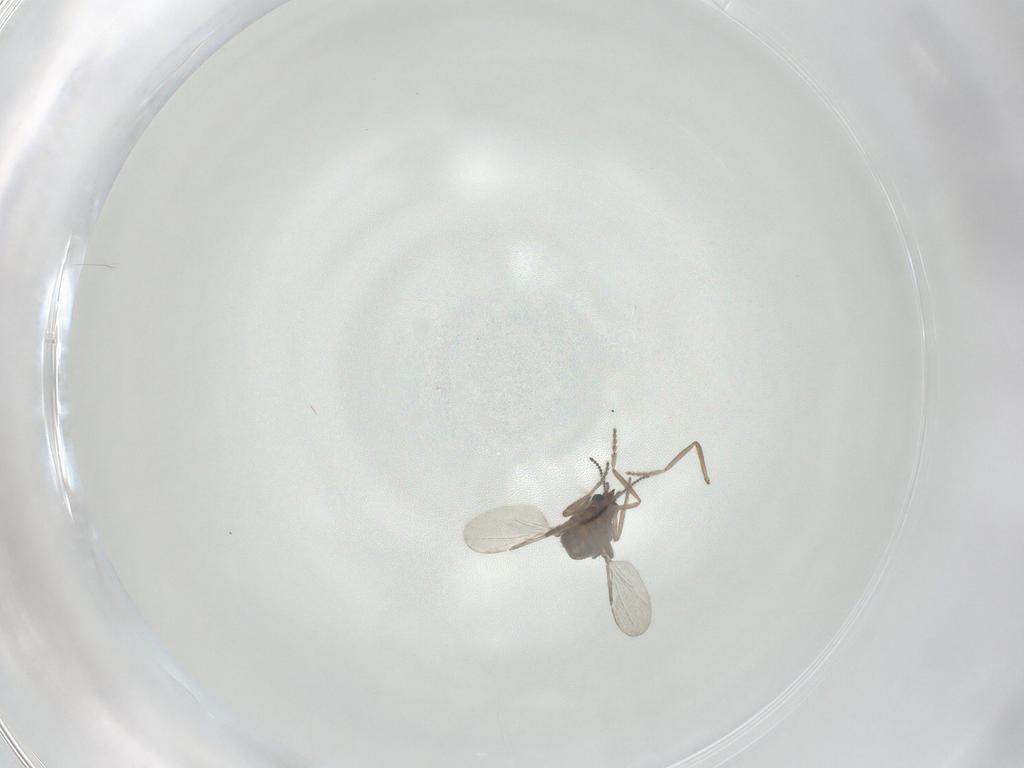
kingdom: Animalia
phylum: Arthropoda
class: Insecta
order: Diptera
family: Ceratopogonidae
